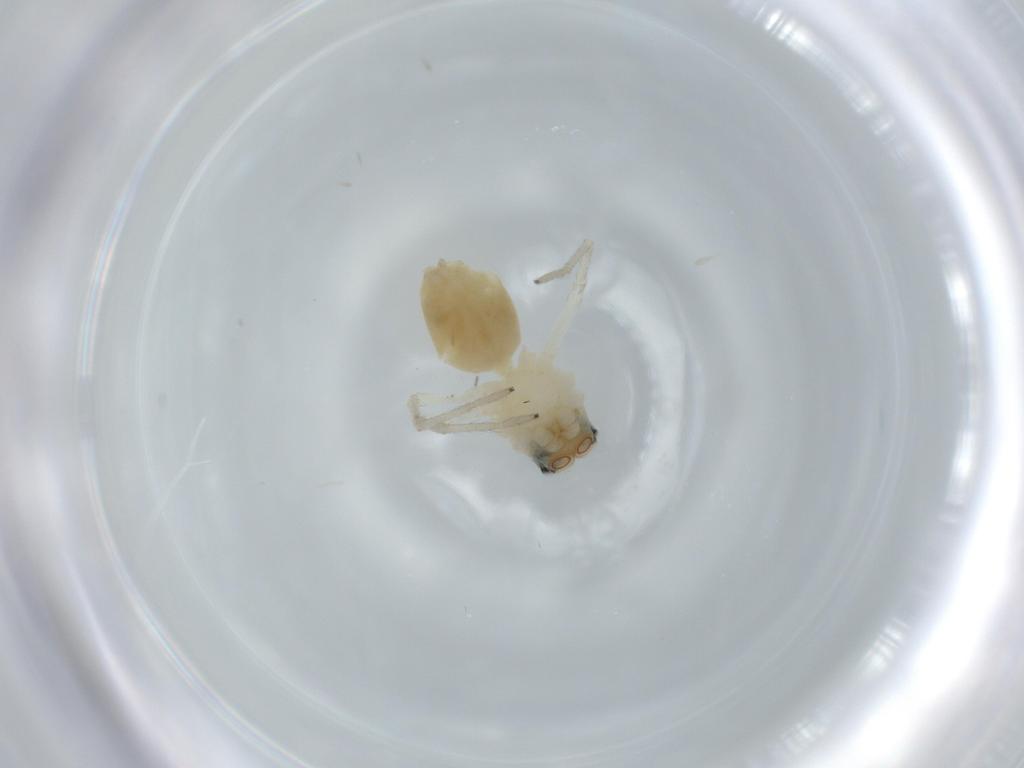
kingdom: Animalia
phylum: Arthropoda
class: Arachnida
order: Araneae
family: Salticidae
